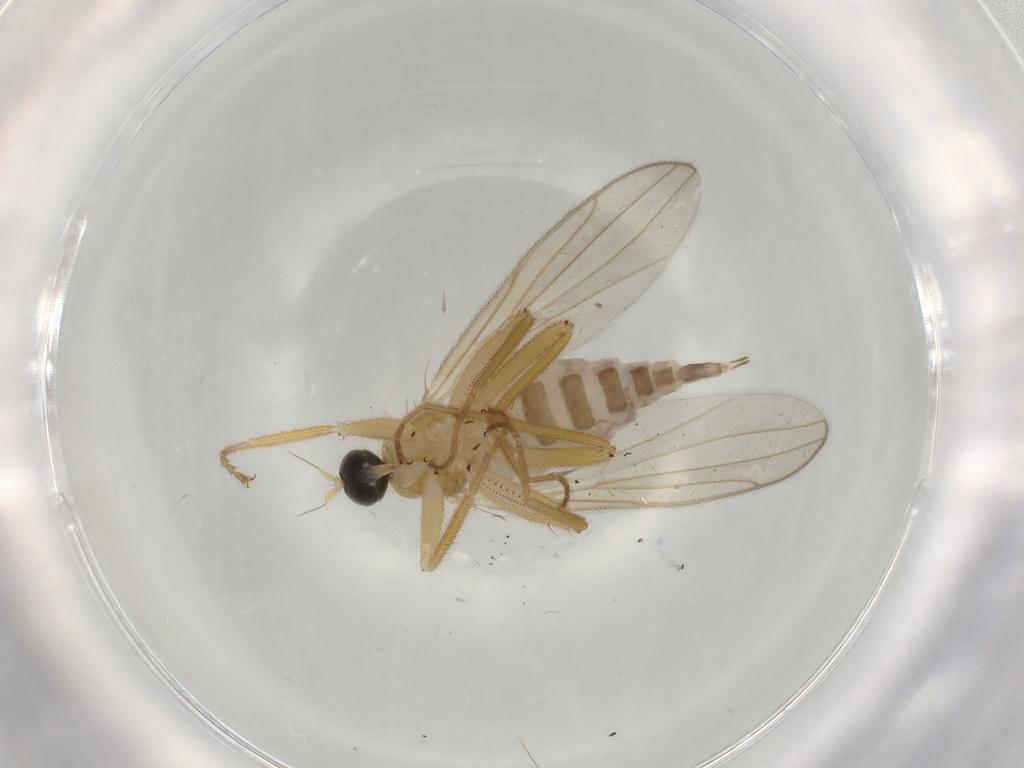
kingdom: Animalia
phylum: Arthropoda
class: Insecta
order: Diptera
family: Hybotidae
